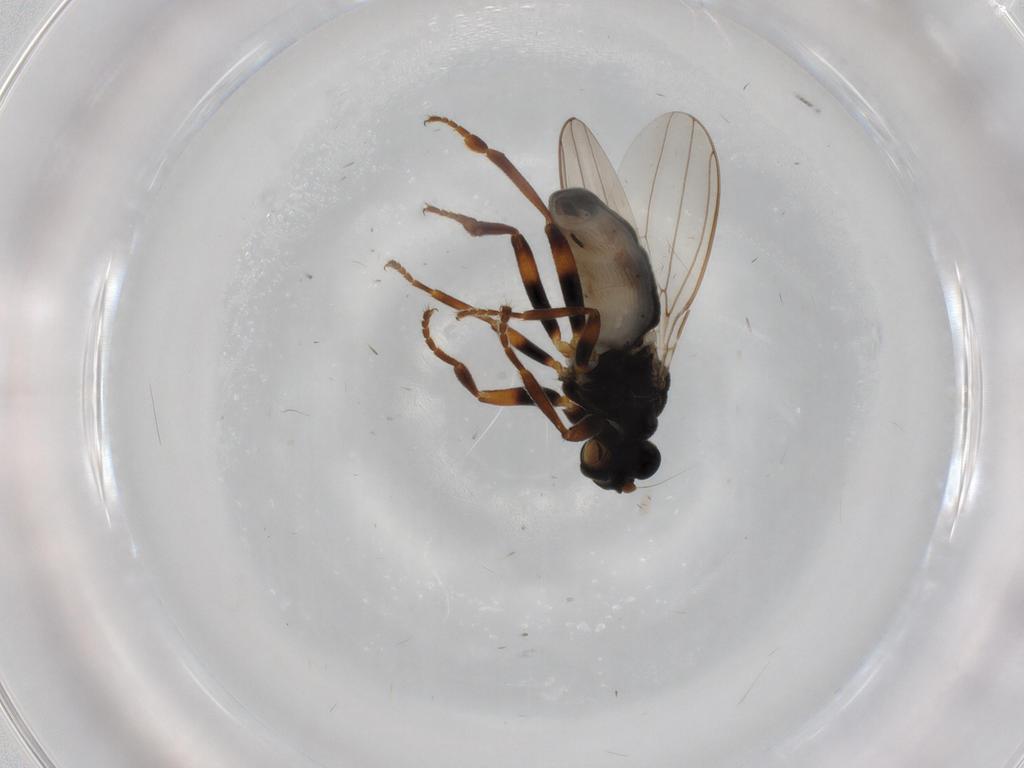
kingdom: Animalia
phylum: Arthropoda
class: Insecta
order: Diptera
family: Sphaeroceridae
